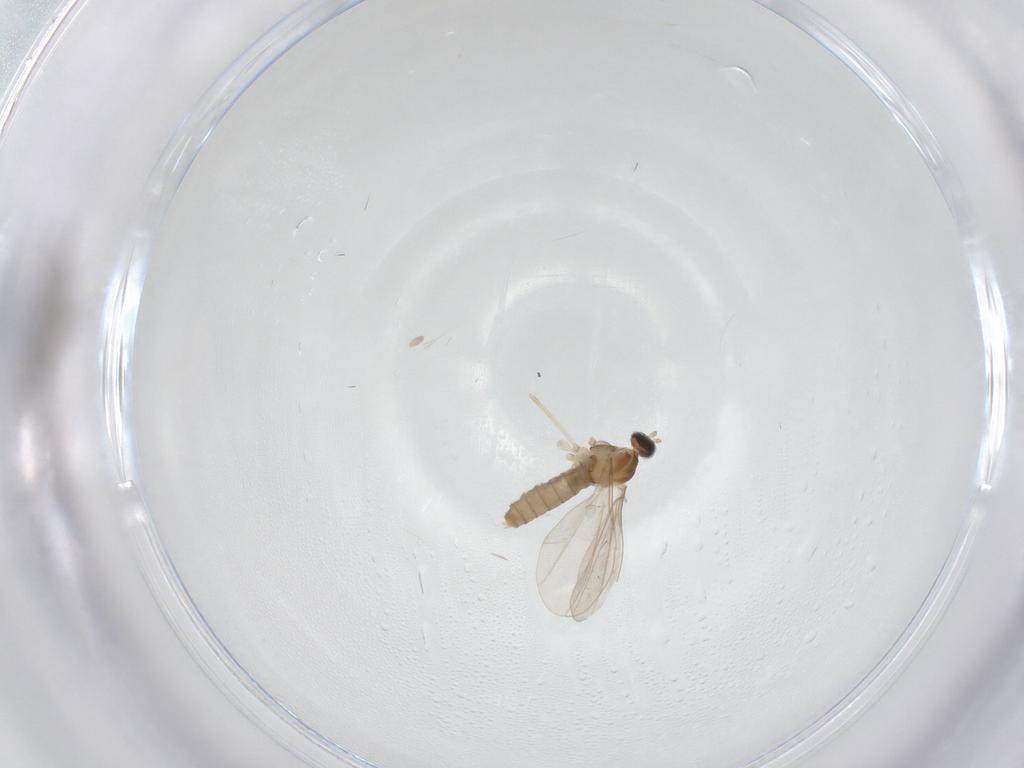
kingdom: Animalia
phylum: Arthropoda
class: Insecta
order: Diptera
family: Cecidomyiidae
